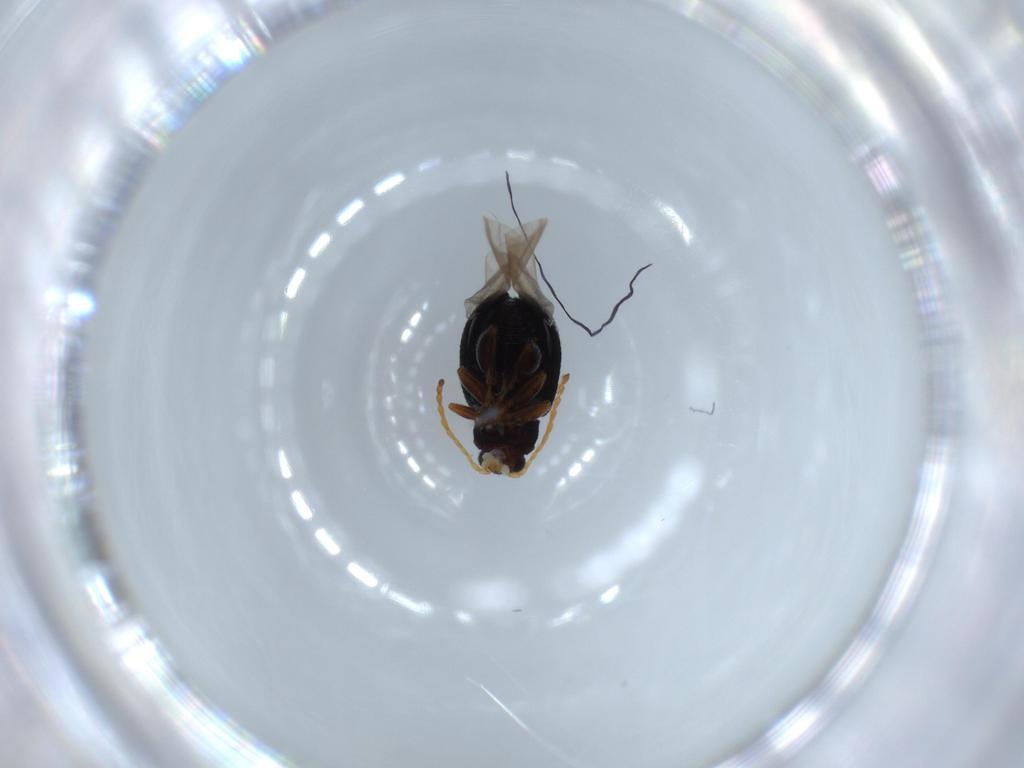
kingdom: Animalia
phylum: Arthropoda
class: Insecta
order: Coleoptera
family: Chrysomelidae
